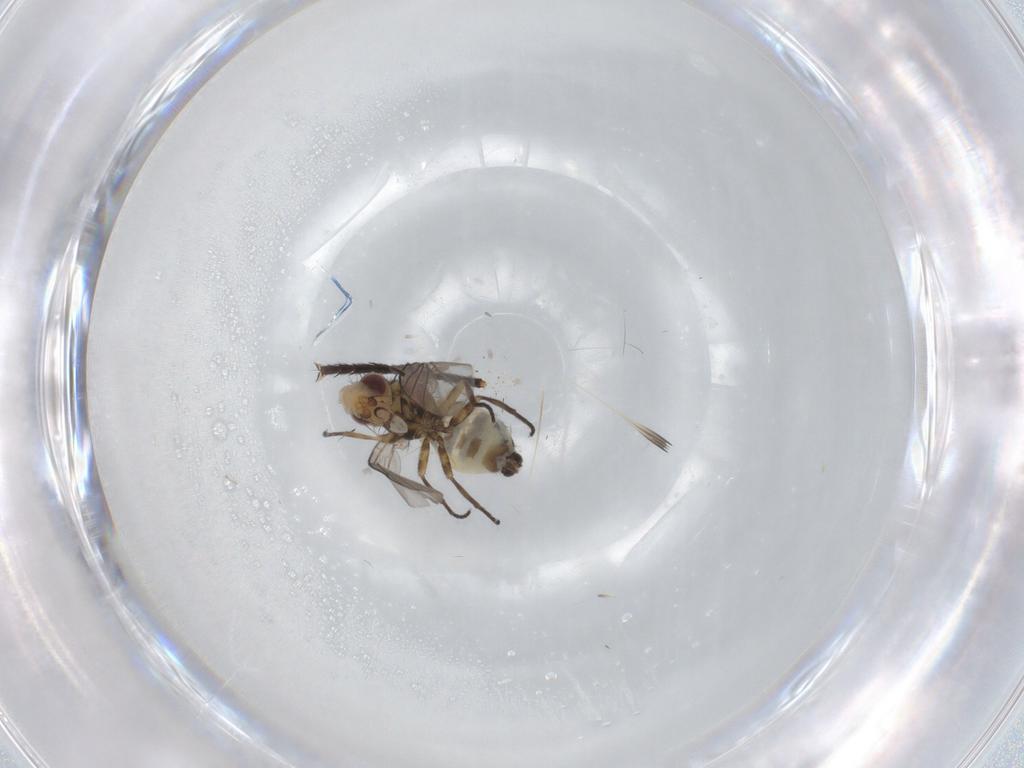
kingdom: Animalia
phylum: Arthropoda
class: Insecta
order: Diptera
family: Agromyzidae
